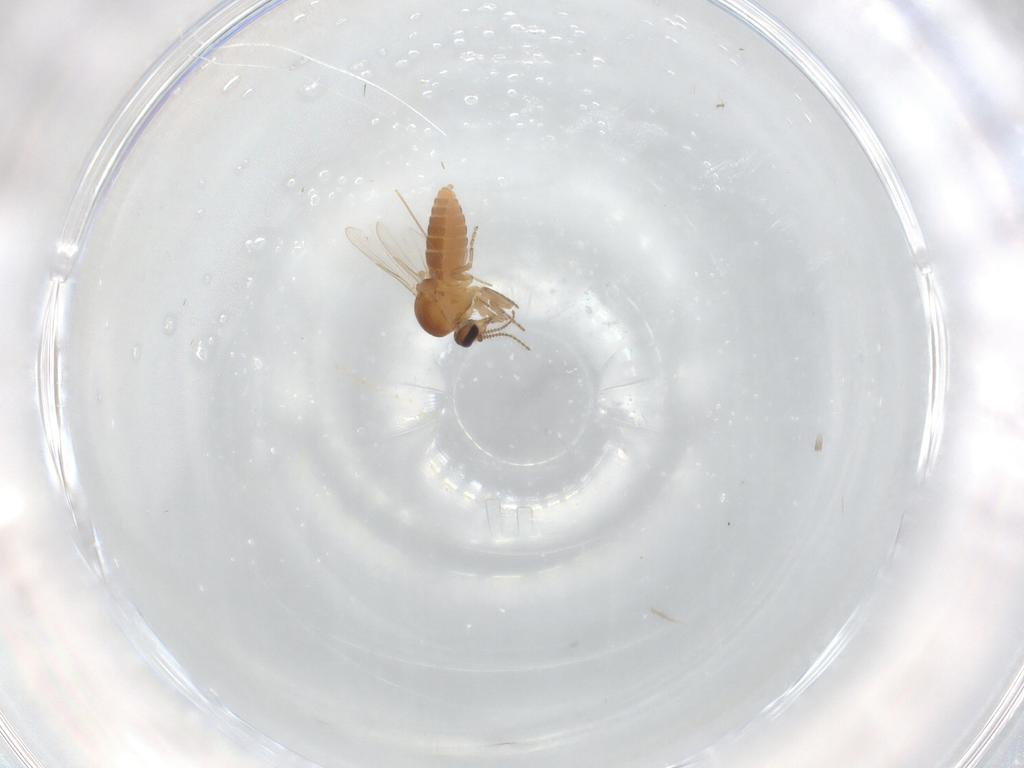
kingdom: Animalia
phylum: Arthropoda
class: Insecta
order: Diptera
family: Ceratopogonidae
